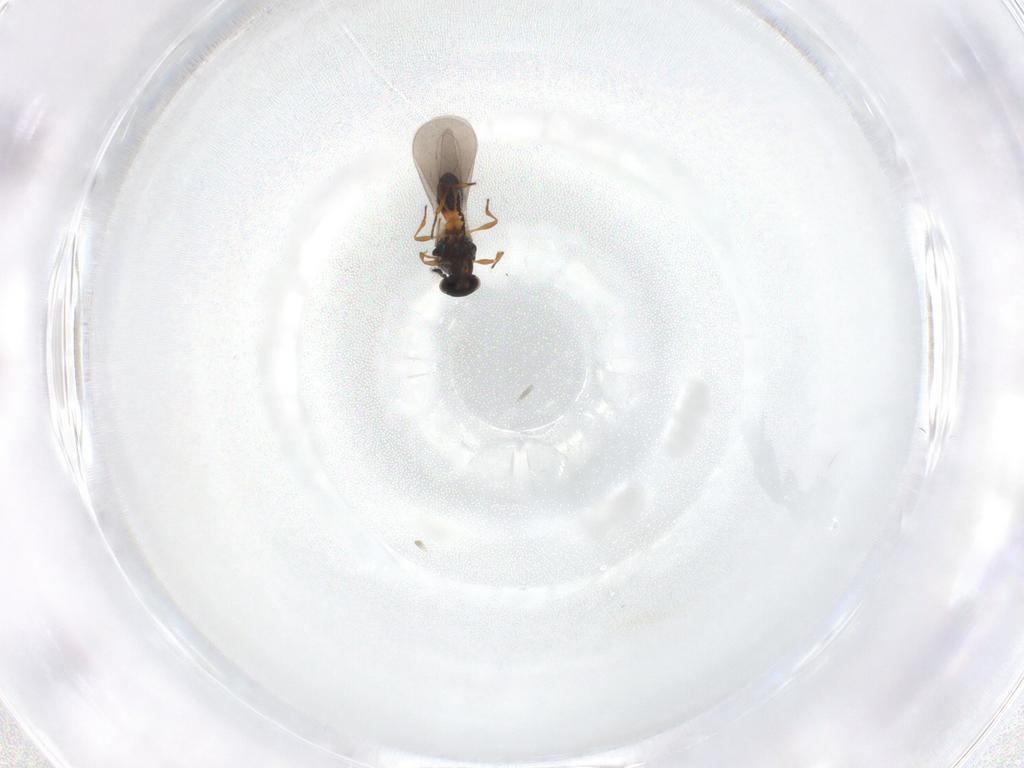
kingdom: Animalia
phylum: Arthropoda
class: Insecta
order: Hymenoptera
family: Platygastridae
